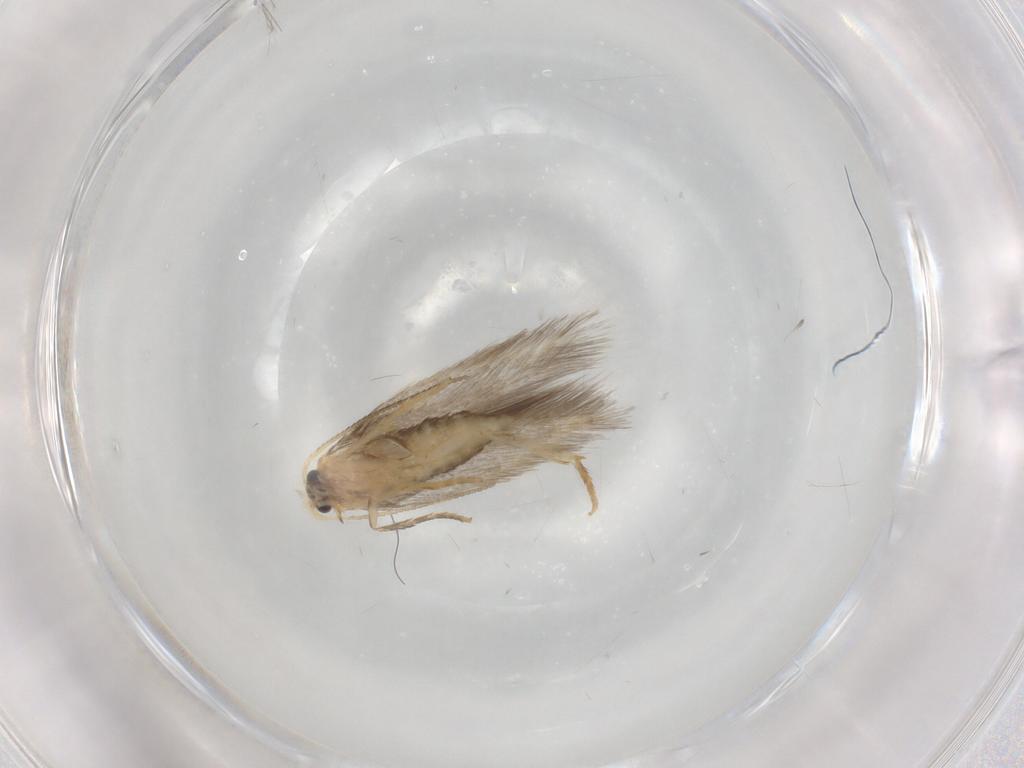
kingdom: Animalia
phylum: Arthropoda
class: Insecta
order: Lepidoptera
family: Nepticulidae
